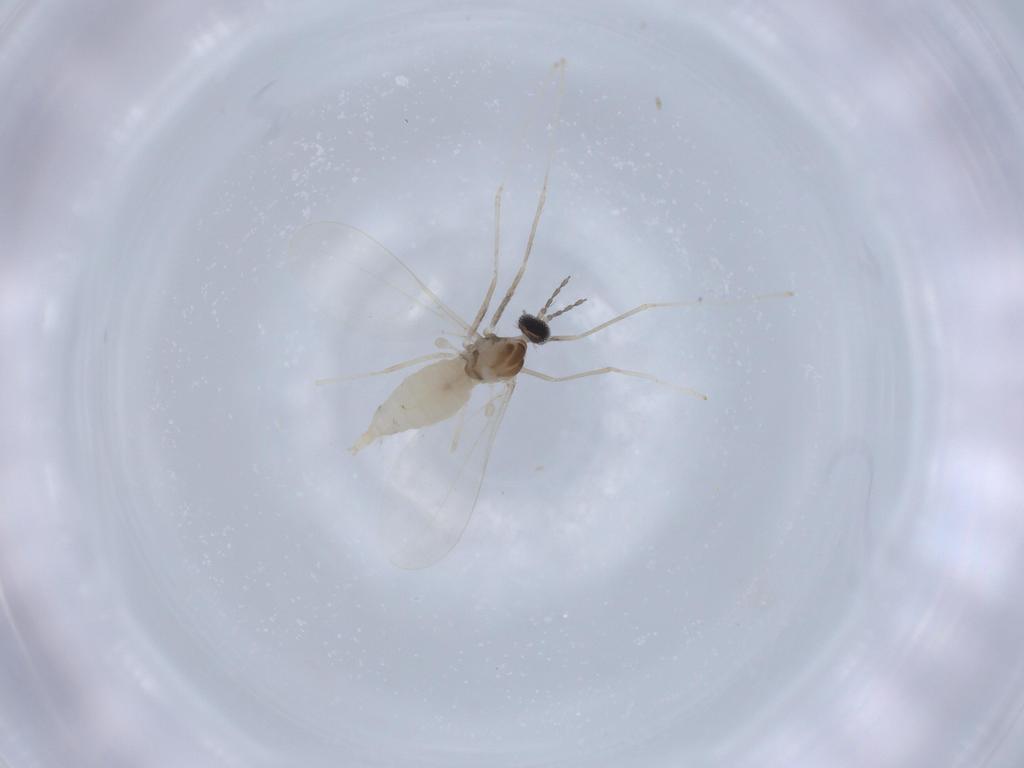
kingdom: Animalia
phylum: Arthropoda
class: Insecta
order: Diptera
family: Cecidomyiidae
